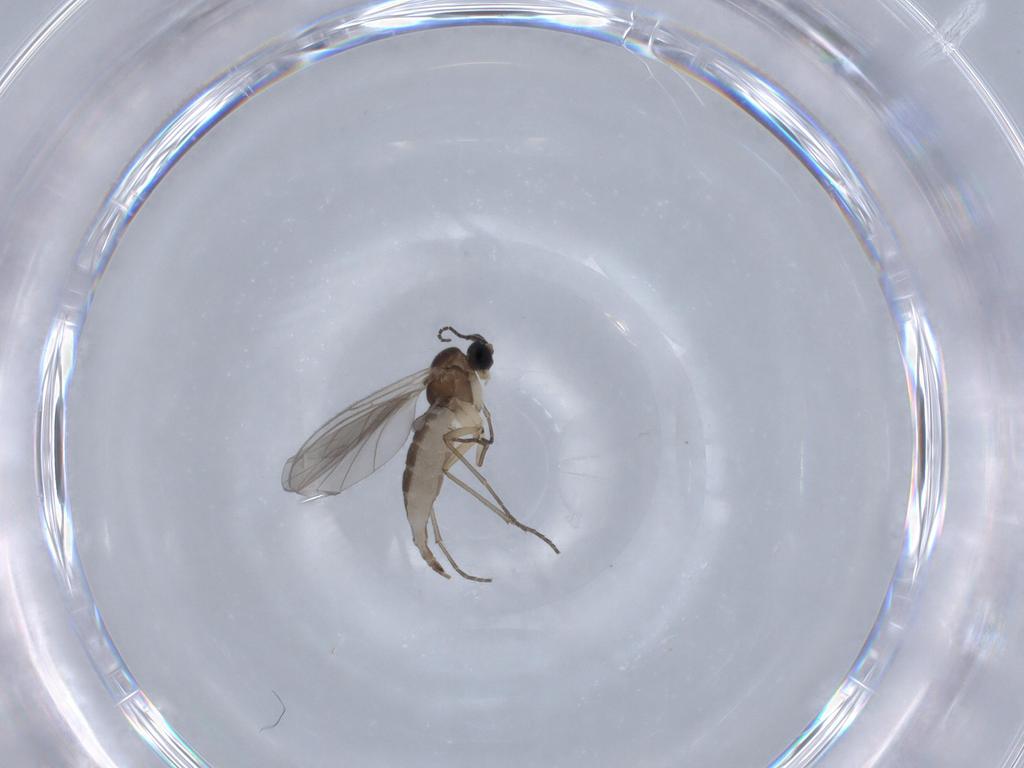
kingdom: Animalia
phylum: Arthropoda
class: Insecta
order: Diptera
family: Sciaridae
